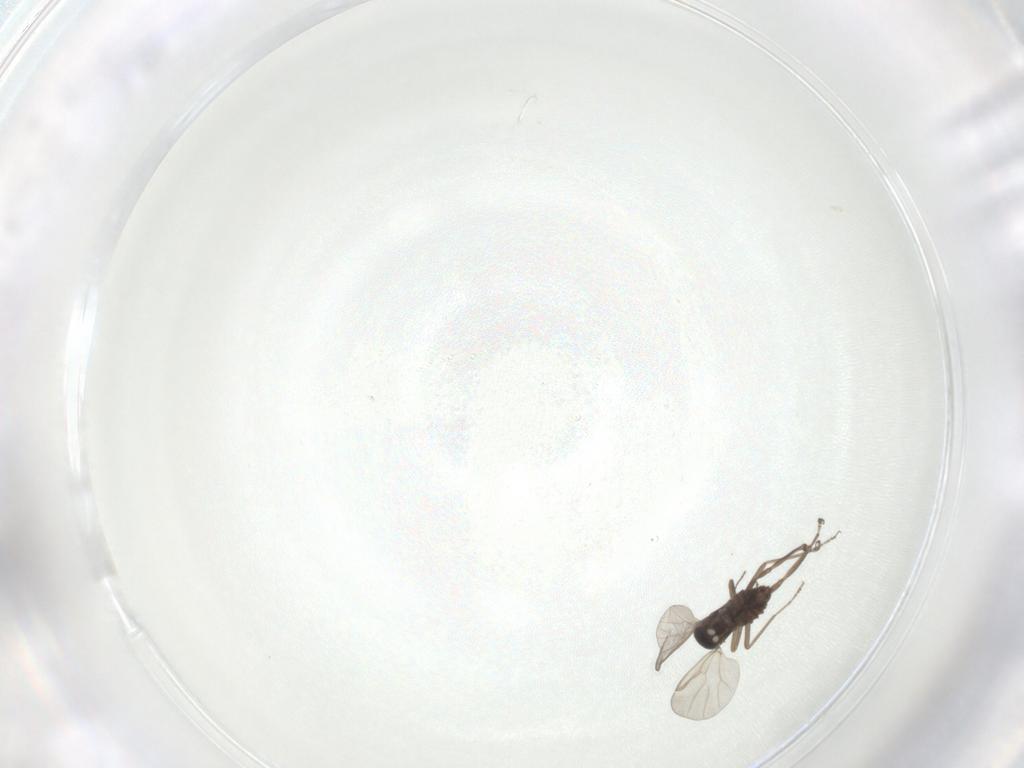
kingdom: Animalia
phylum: Arthropoda
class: Insecta
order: Diptera
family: Ceratopogonidae
